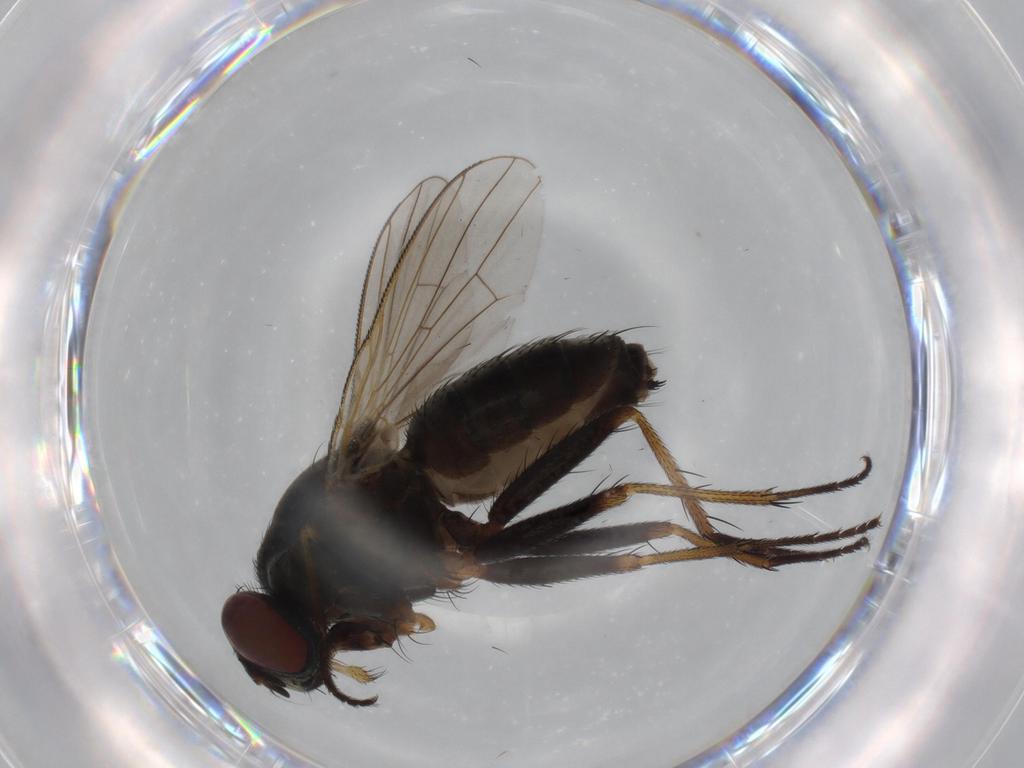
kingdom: Animalia
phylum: Arthropoda
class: Insecta
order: Diptera
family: Muscidae
